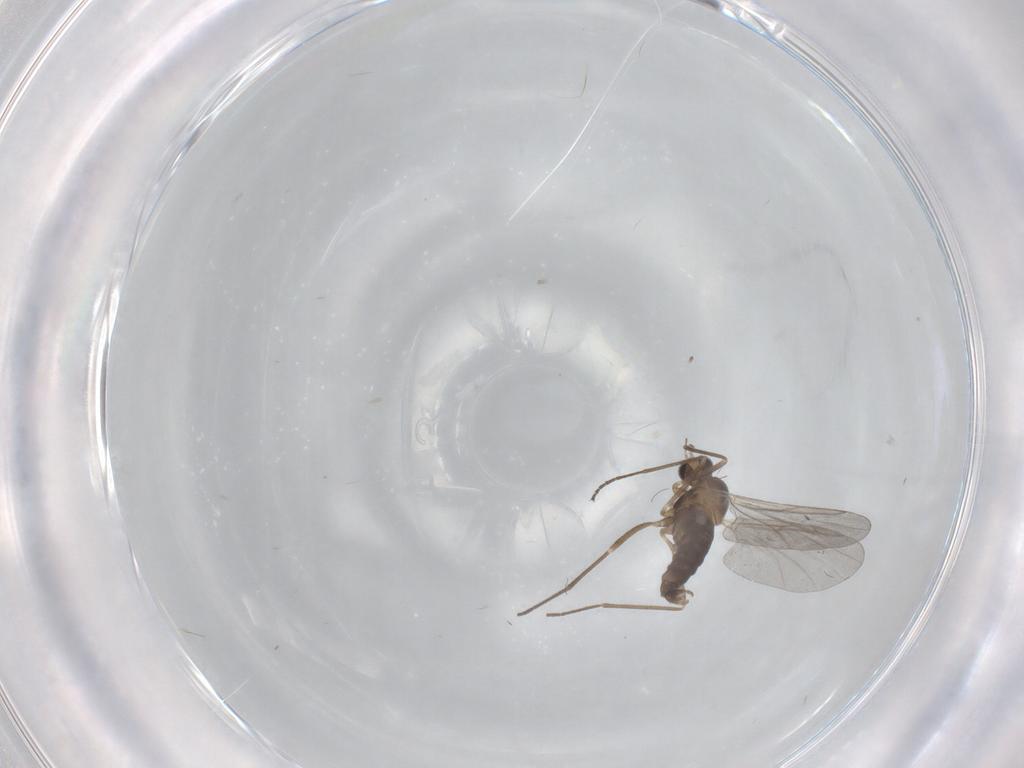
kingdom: Animalia
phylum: Arthropoda
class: Insecta
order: Diptera
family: Cecidomyiidae
